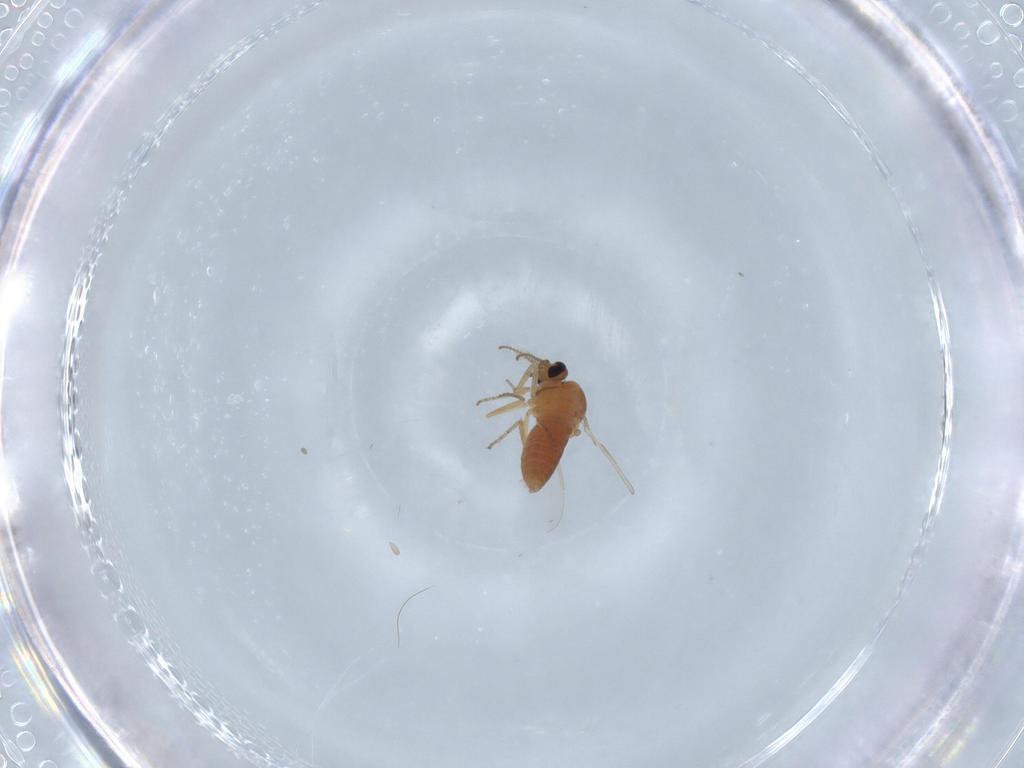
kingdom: Animalia
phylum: Arthropoda
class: Insecta
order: Diptera
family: Ceratopogonidae
